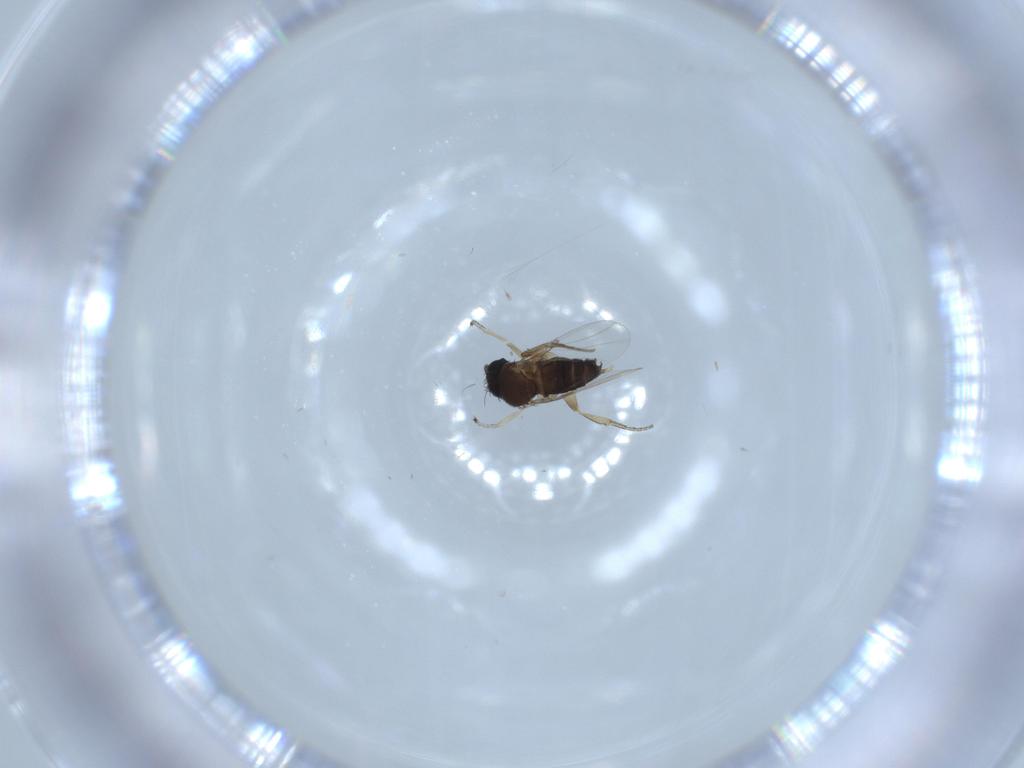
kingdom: Animalia
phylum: Arthropoda
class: Insecta
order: Diptera
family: Phoridae
